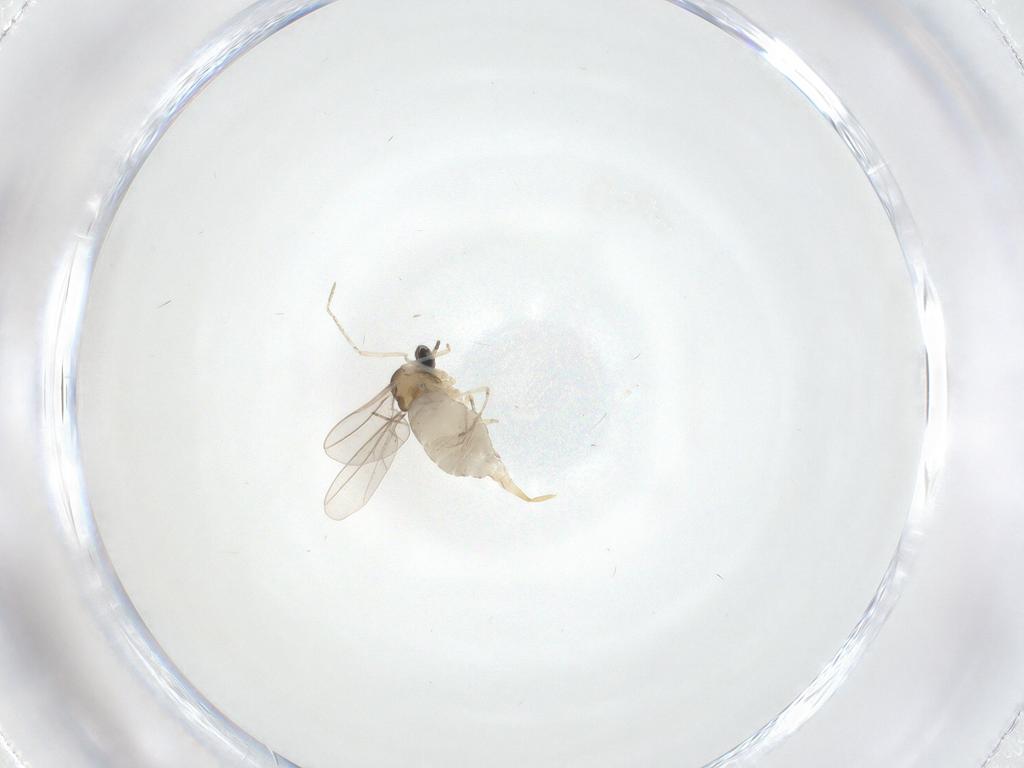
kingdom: Animalia
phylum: Arthropoda
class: Insecta
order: Diptera
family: Cecidomyiidae
